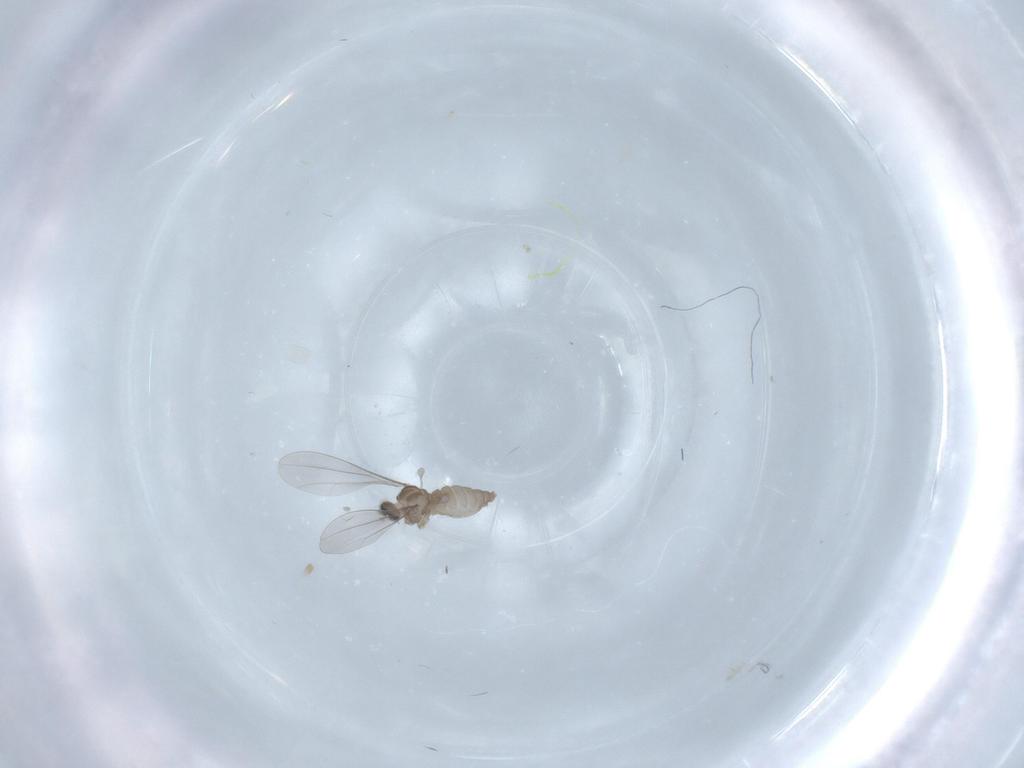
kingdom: Animalia
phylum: Arthropoda
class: Insecta
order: Diptera
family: Cecidomyiidae
